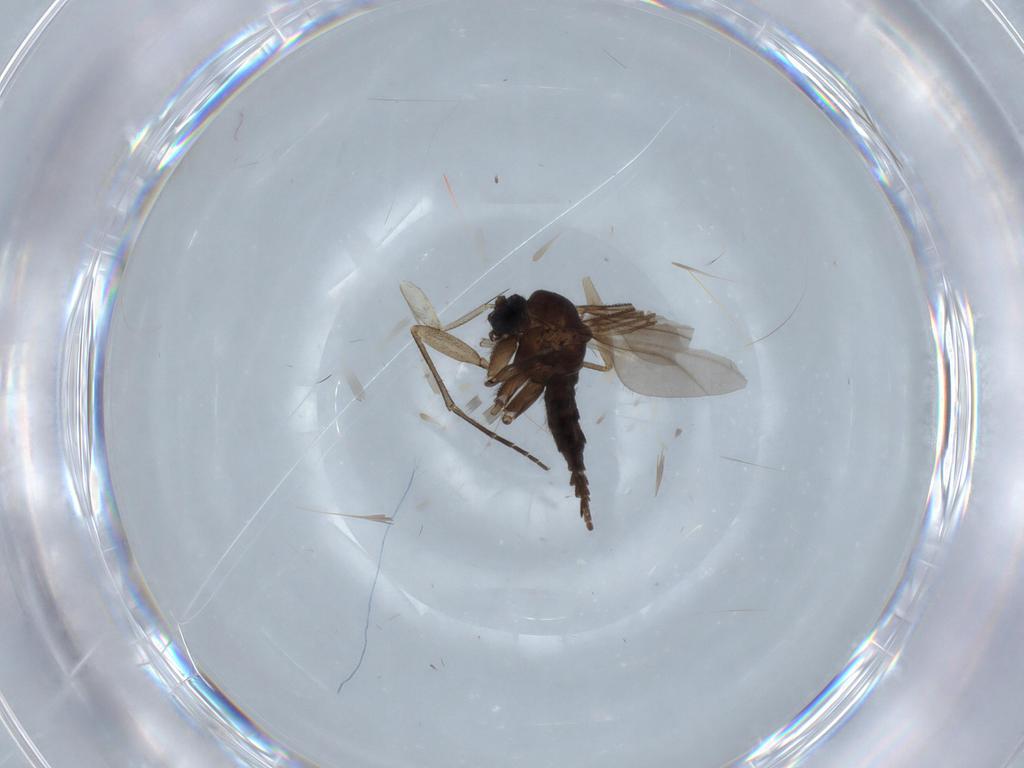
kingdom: Animalia
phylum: Arthropoda
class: Insecta
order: Diptera
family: Sciaridae
